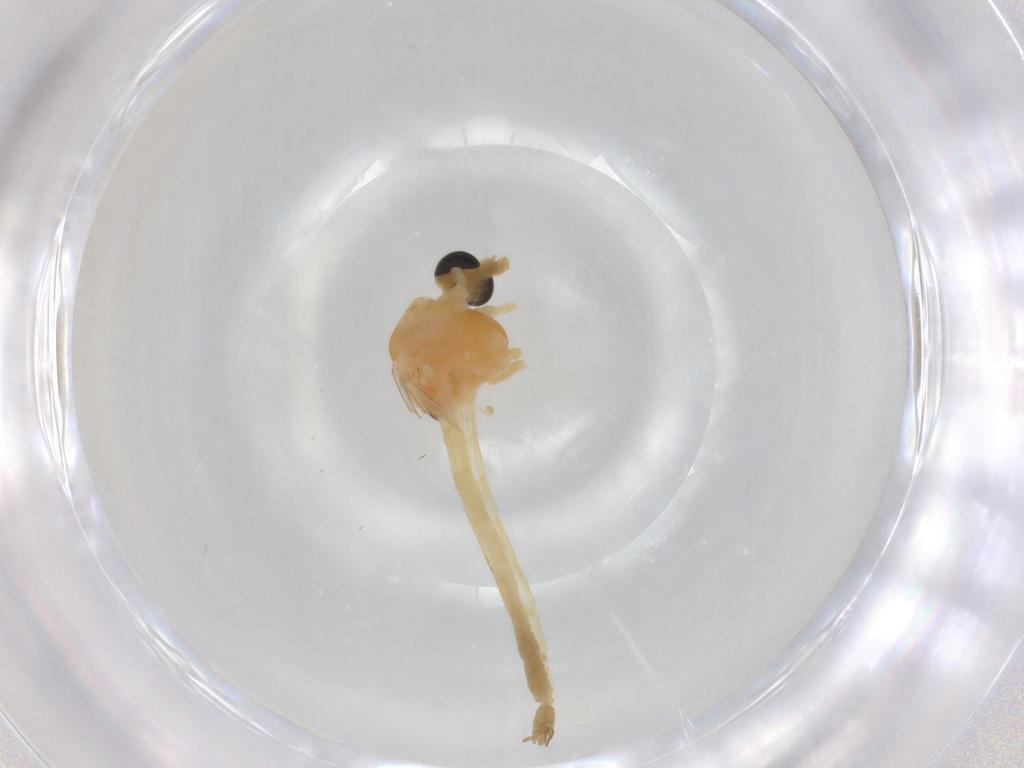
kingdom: Animalia
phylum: Arthropoda
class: Insecta
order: Diptera
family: Chironomidae
